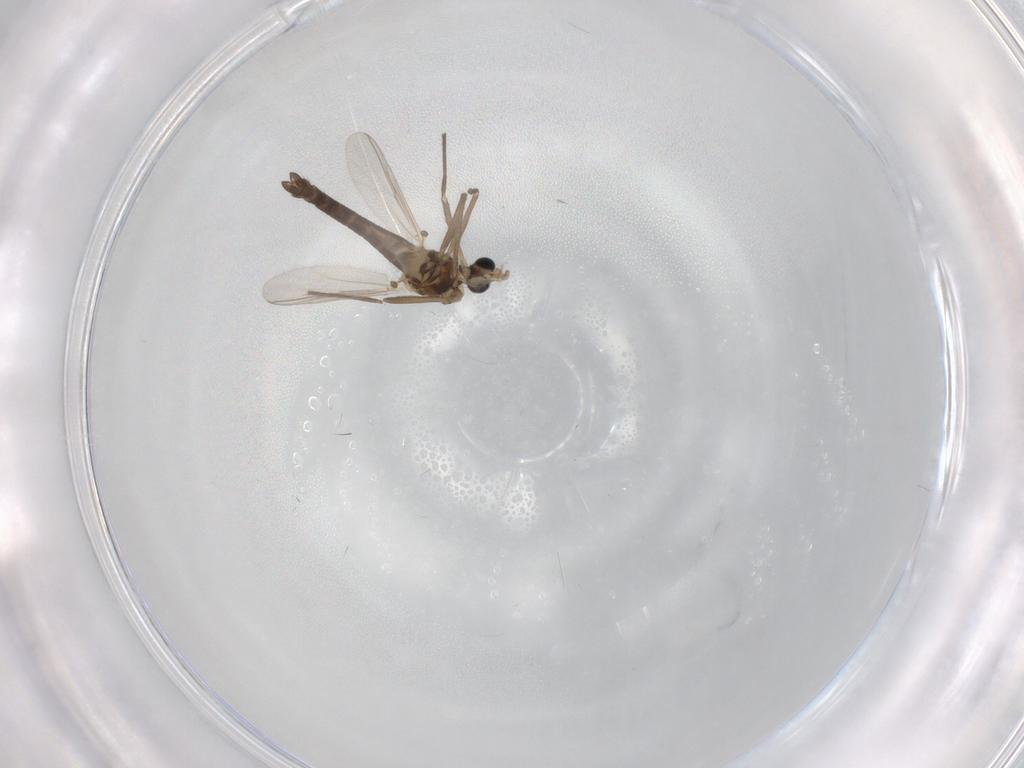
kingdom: Animalia
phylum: Arthropoda
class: Insecta
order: Diptera
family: Chironomidae
